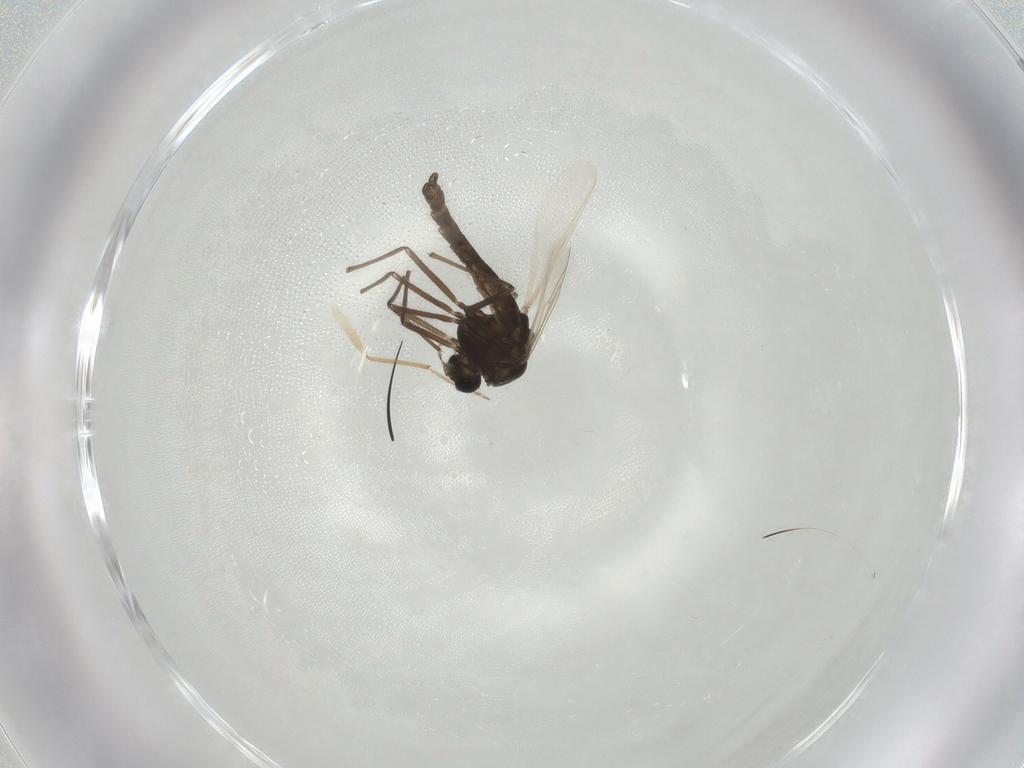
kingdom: Animalia
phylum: Arthropoda
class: Insecta
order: Diptera
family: Chironomidae
